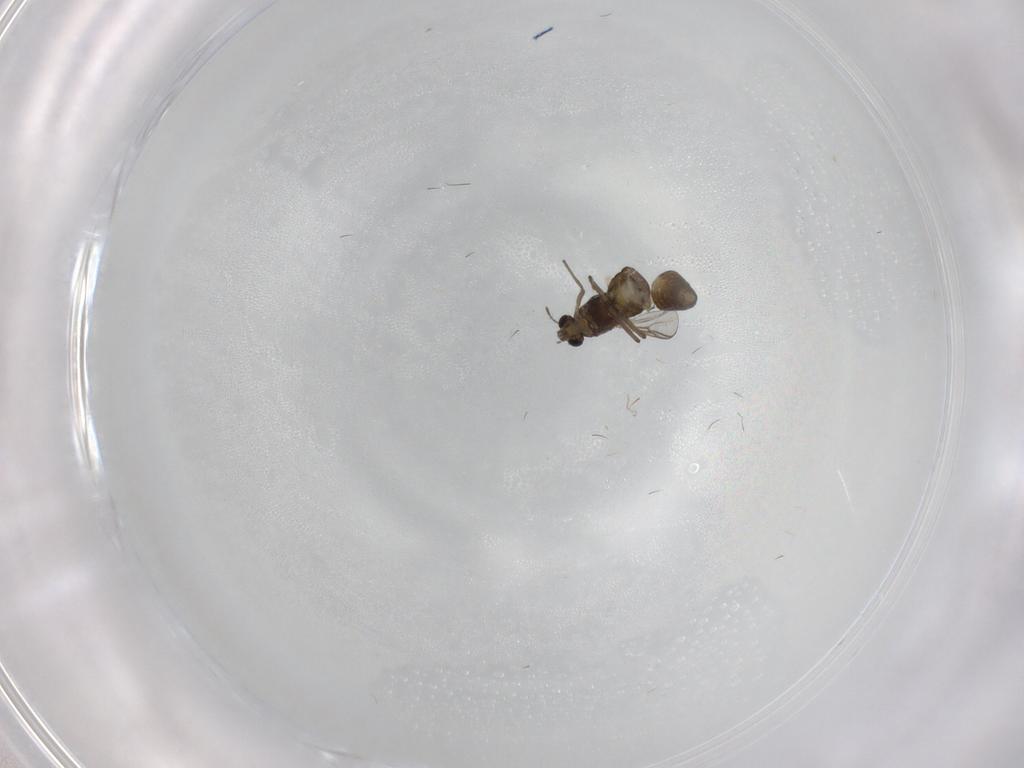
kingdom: Animalia
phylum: Arthropoda
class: Insecta
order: Diptera
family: Chironomidae
